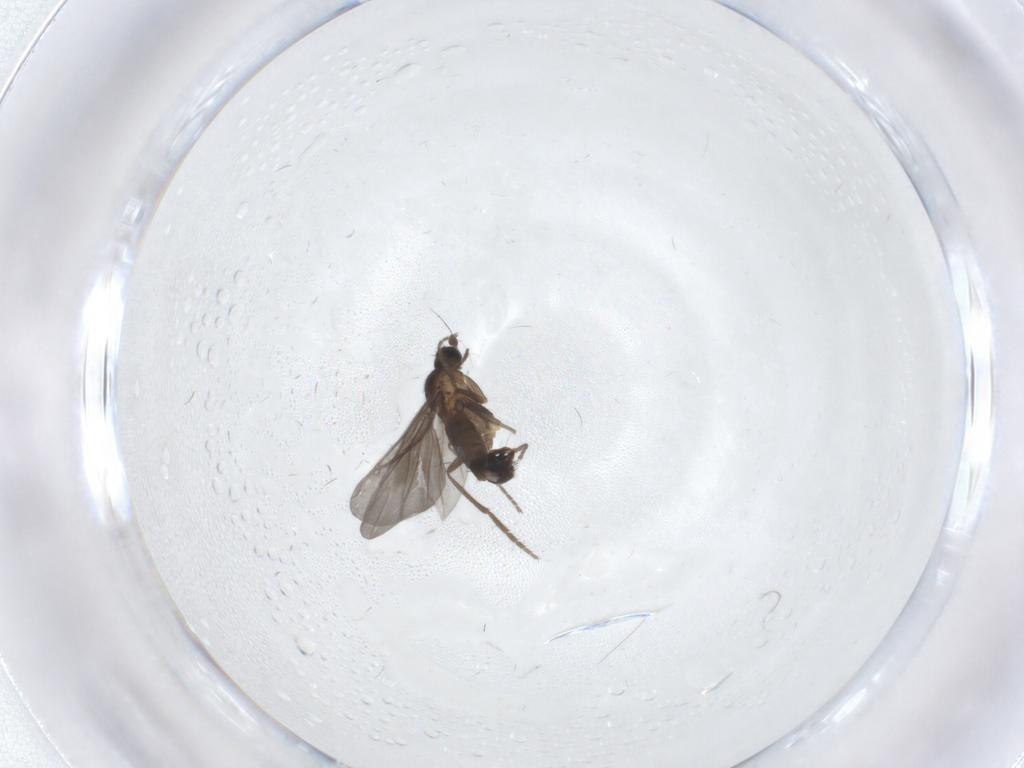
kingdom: Animalia
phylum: Arthropoda
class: Insecta
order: Diptera
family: Phoridae
